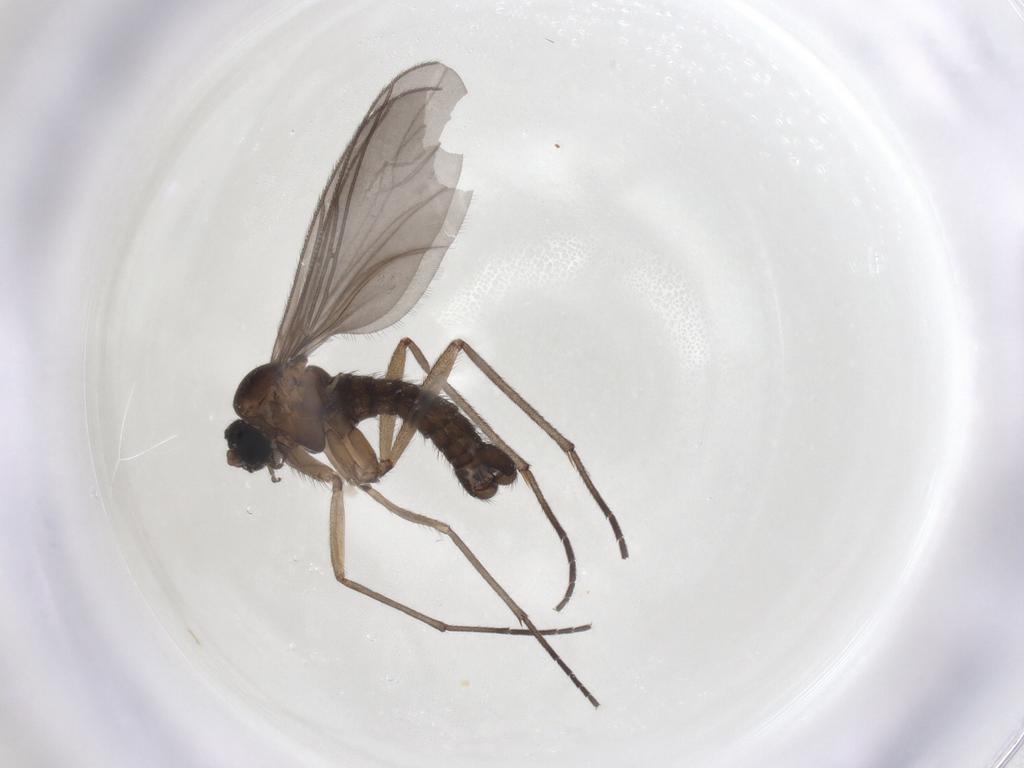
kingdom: Animalia
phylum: Arthropoda
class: Insecta
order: Diptera
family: Sciaridae
